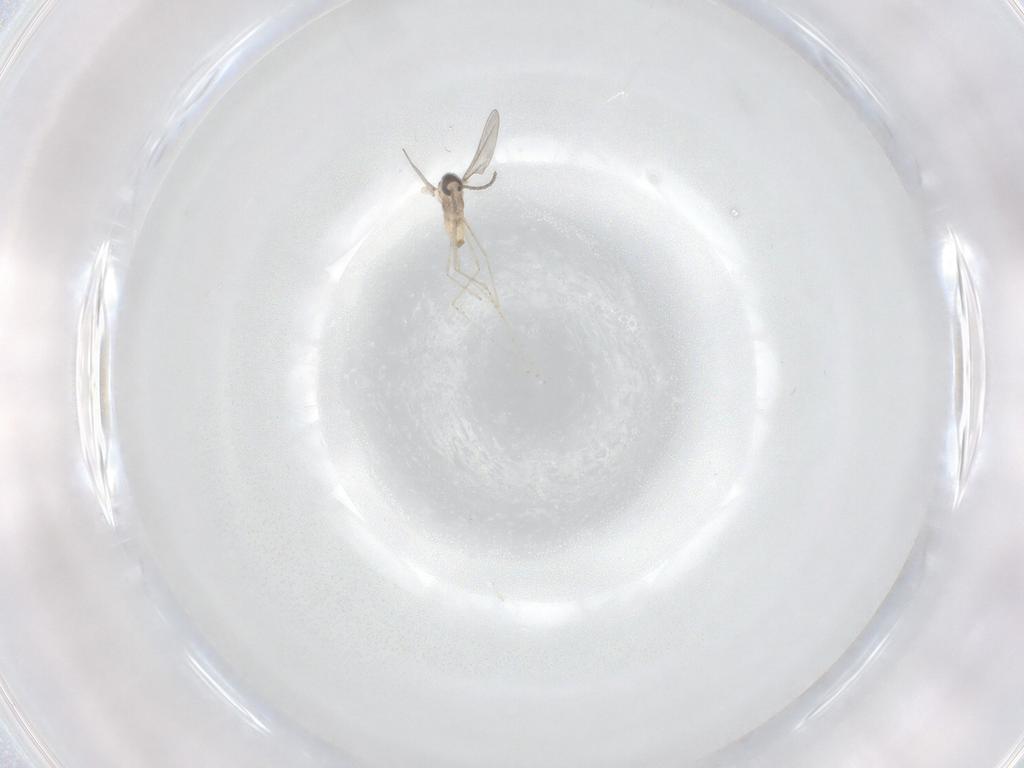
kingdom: Animalia
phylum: Arthropoda
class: Insecta
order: Diptera
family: Cecidomyiidae
